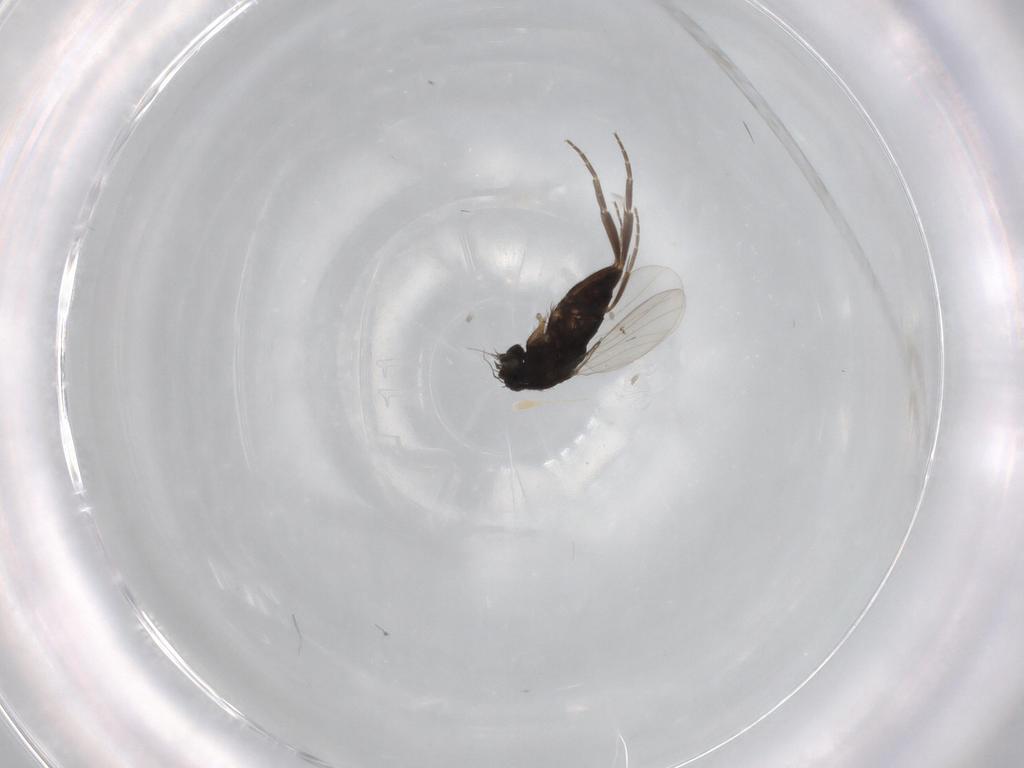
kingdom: Animalia
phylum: Arthropoda
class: Insecta
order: Diptera
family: Phoridae
